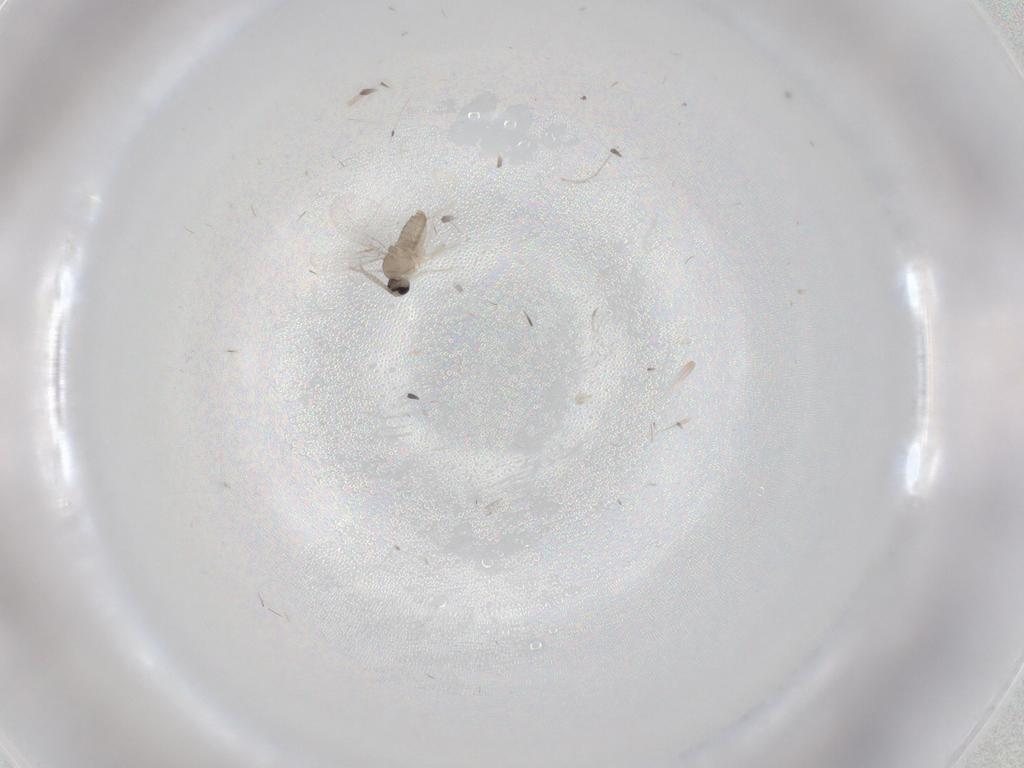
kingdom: Animalia
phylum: Arthropoda
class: Insecta
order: Diptera
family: Cecidomyiidae
